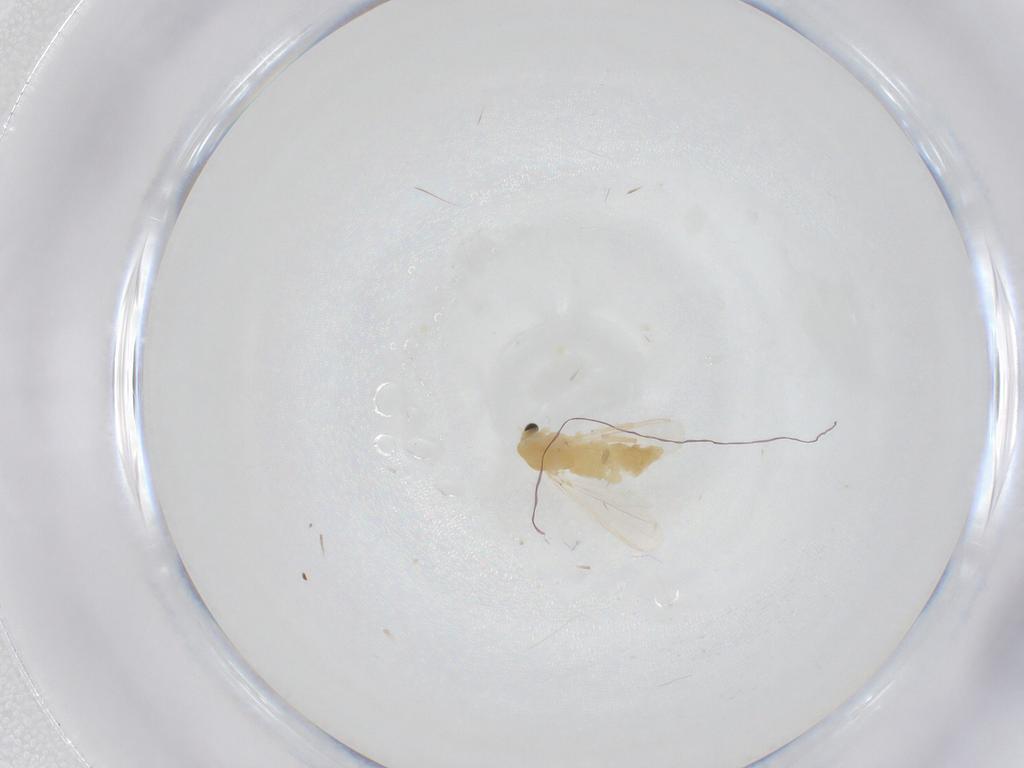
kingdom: Animalia
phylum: Arthropoda
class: Insecta
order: Diptera
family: Chironomidae
